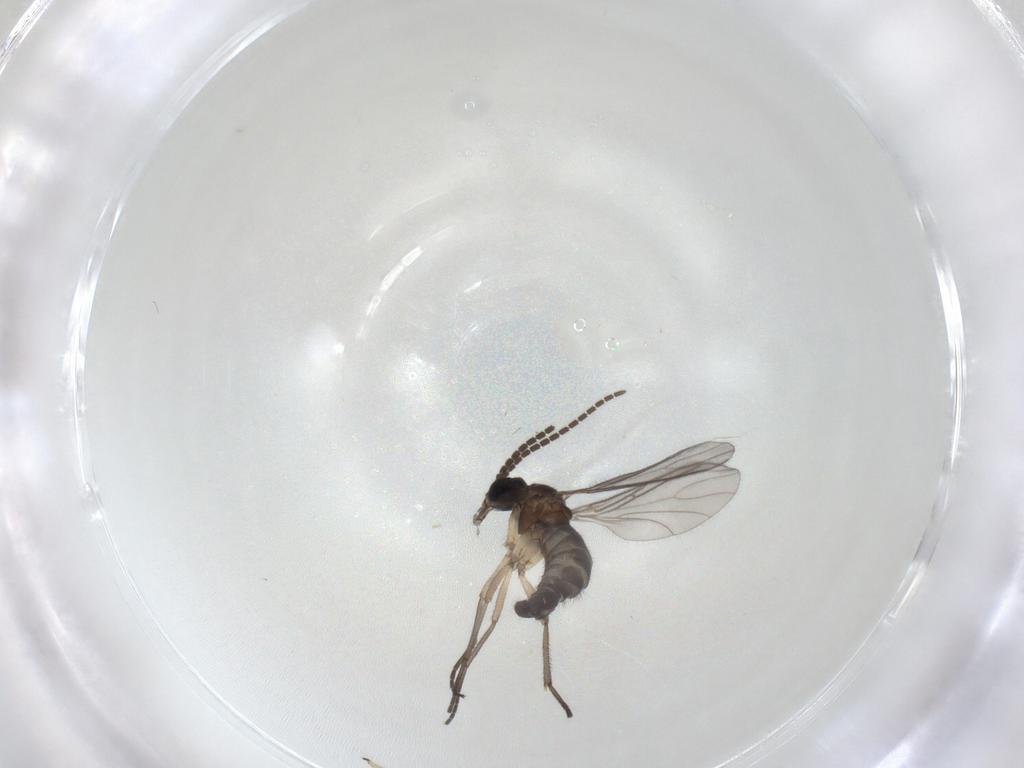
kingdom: Animalia
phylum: Arthropoda
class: Insecta
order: Diptera
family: Sciaridae
